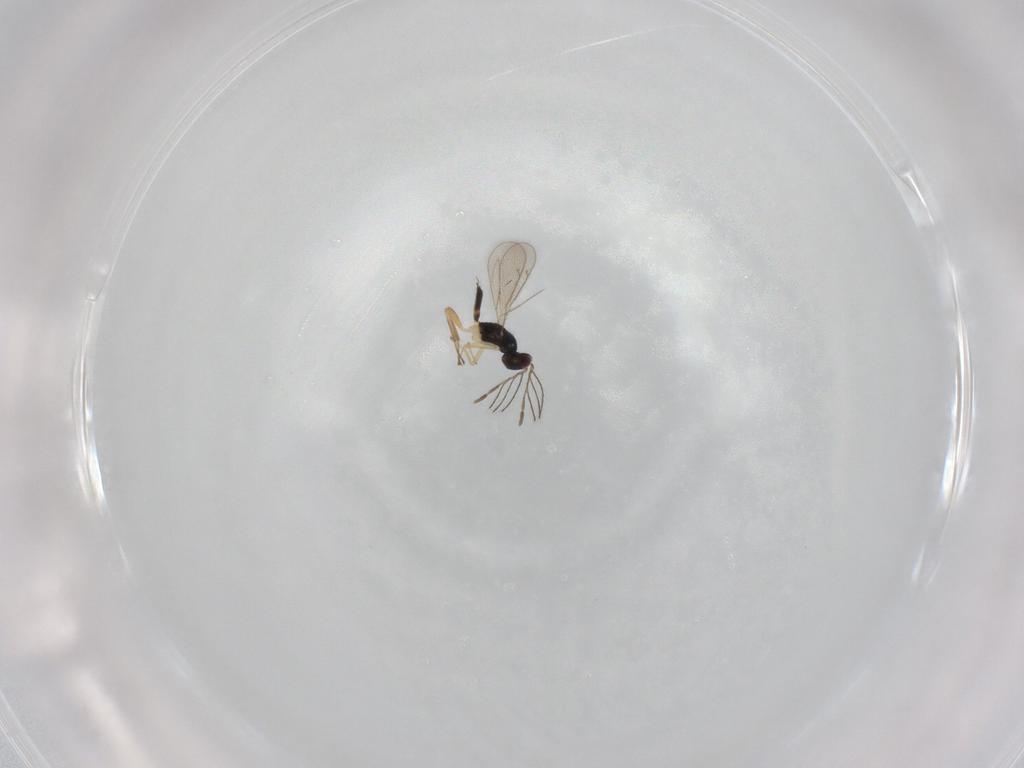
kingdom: Animalia
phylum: Arthropoda
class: Insecta
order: Hymenoptera
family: Eulophidae
